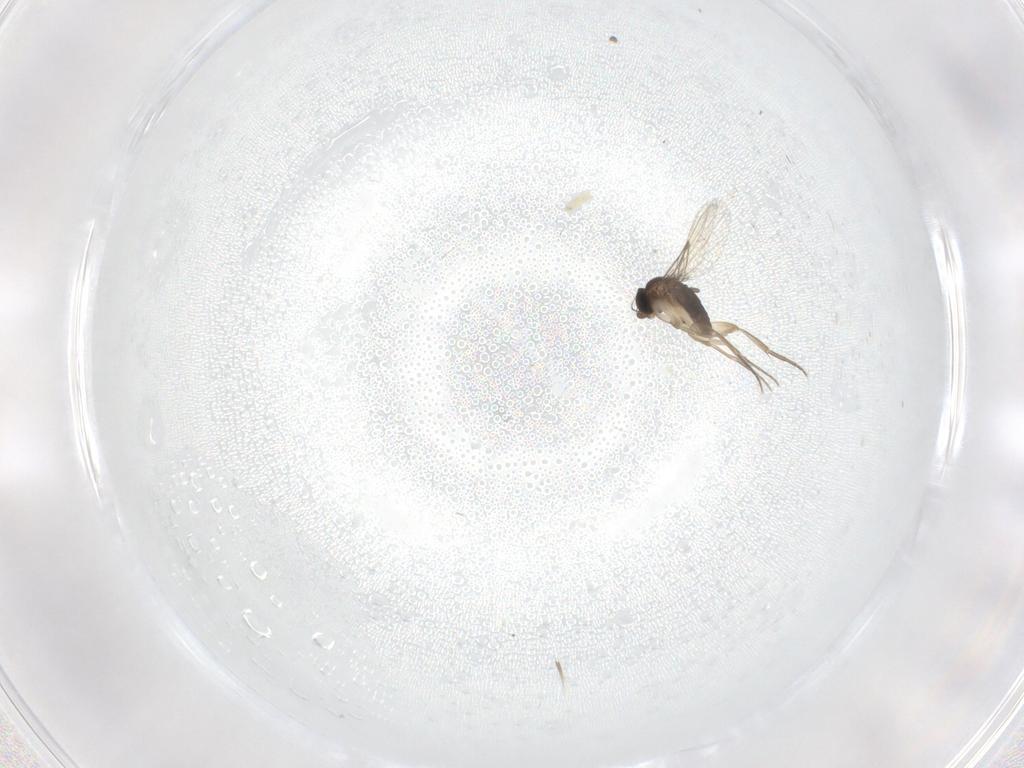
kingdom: Animalia
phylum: Arthropoda
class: Insecta
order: Diptera
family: Phoridae
